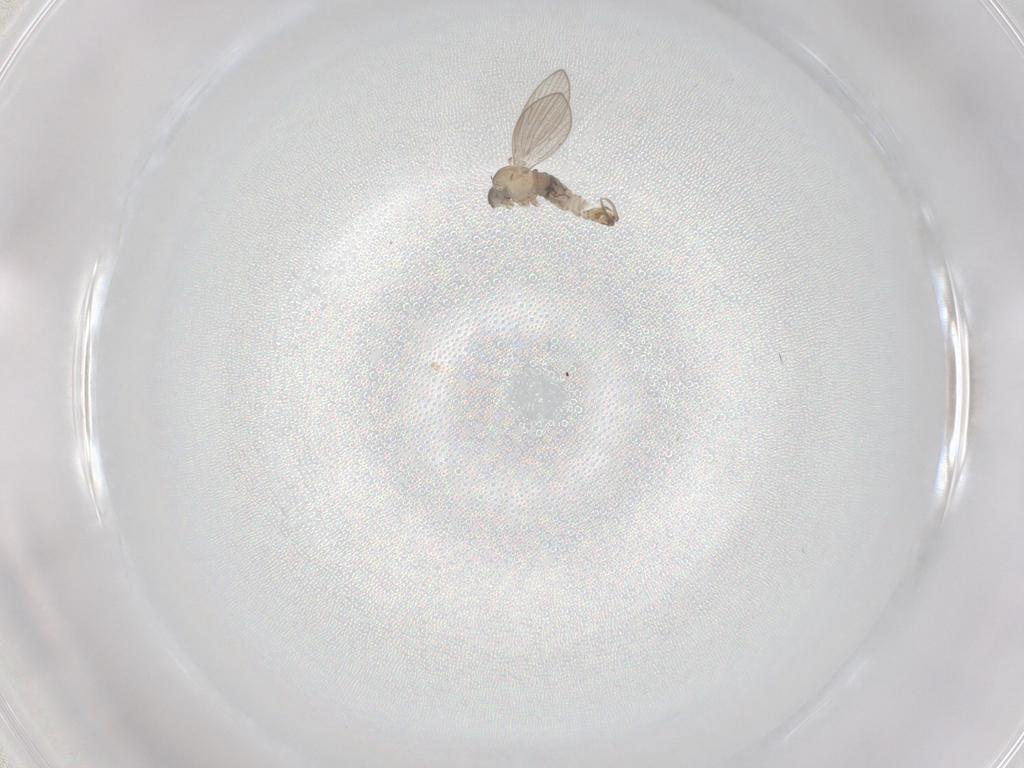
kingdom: Animalia
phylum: Arthropoda
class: Insecta
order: Diptera
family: Psychodidae
